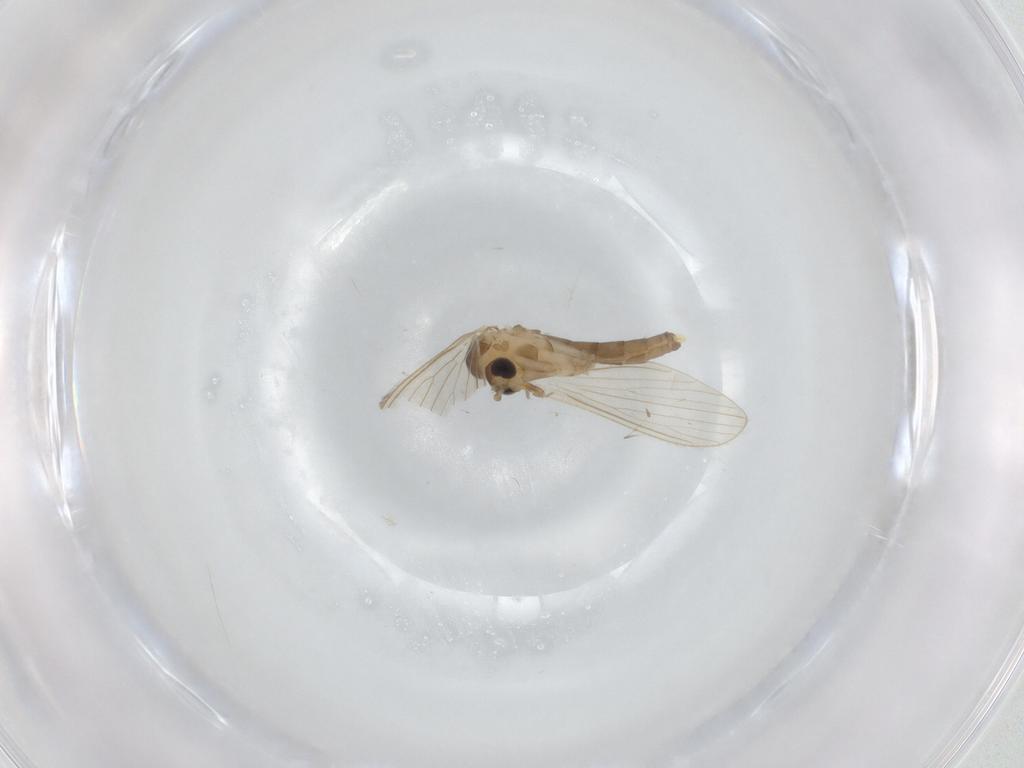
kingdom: Animalia
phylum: Arthropoda
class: Insecta
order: Diptera
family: Psychodidae
